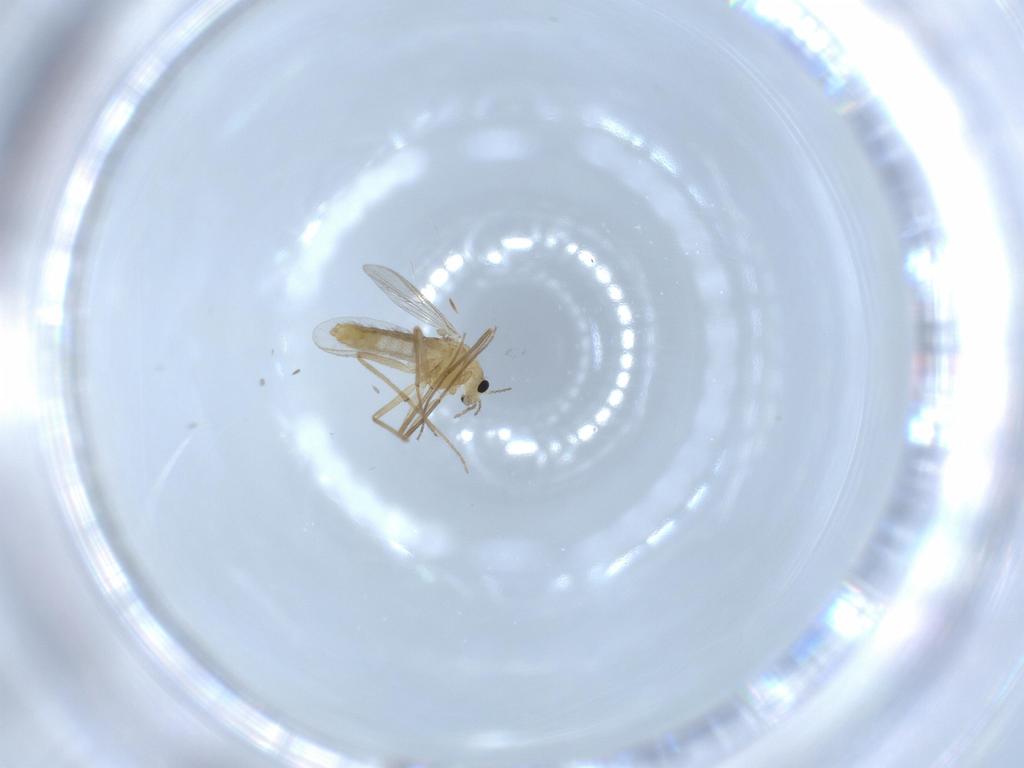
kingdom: Animalia
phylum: Arthropoda
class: Insecta
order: Diptera
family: Chironomidae
